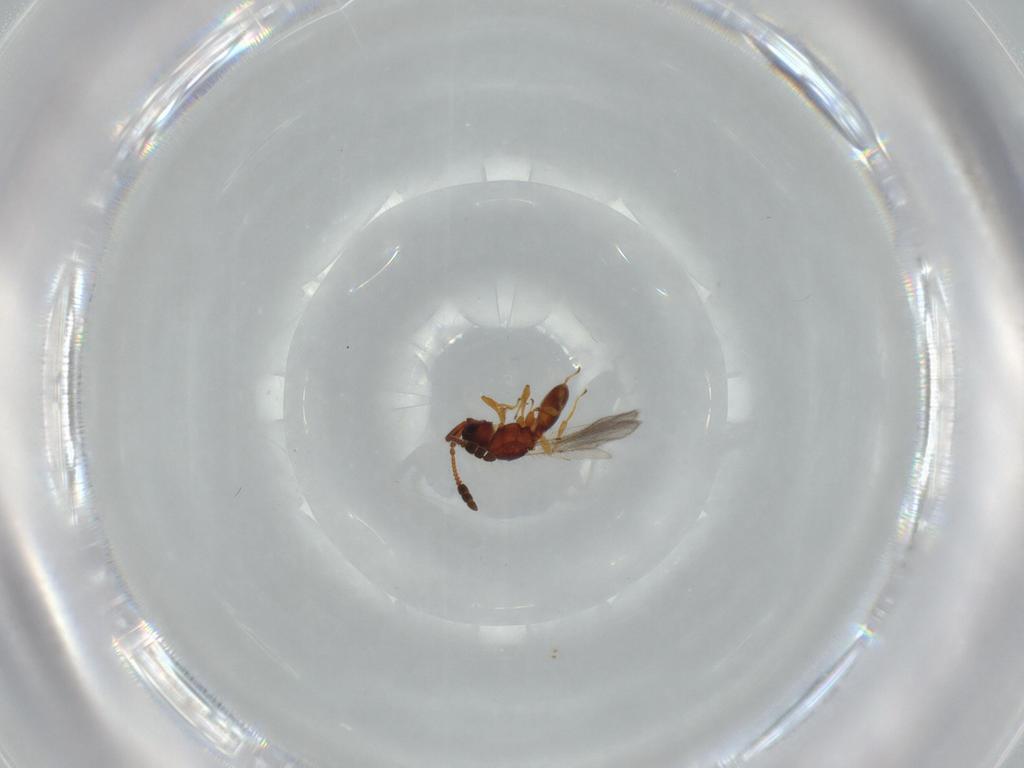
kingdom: Animalia
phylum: Arthropoda
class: Insecta
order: Hymenoptera
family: Diapriidae
